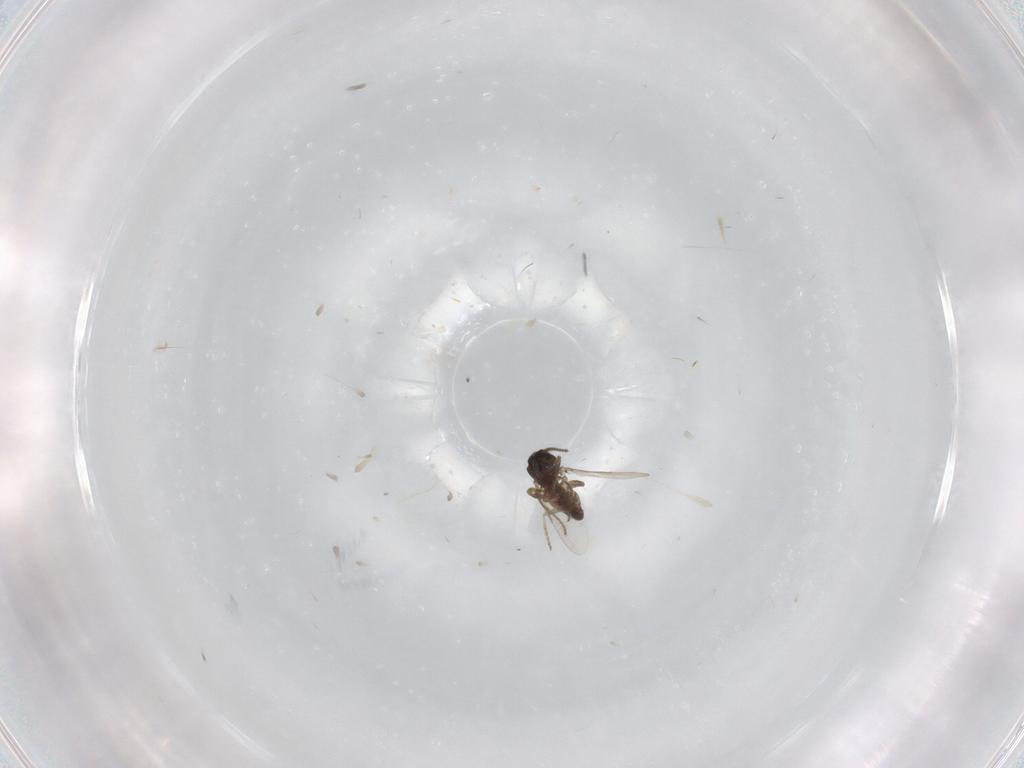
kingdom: Animalia
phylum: Arthropoda
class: Insecta
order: Diptera
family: Ceratopogonidae
